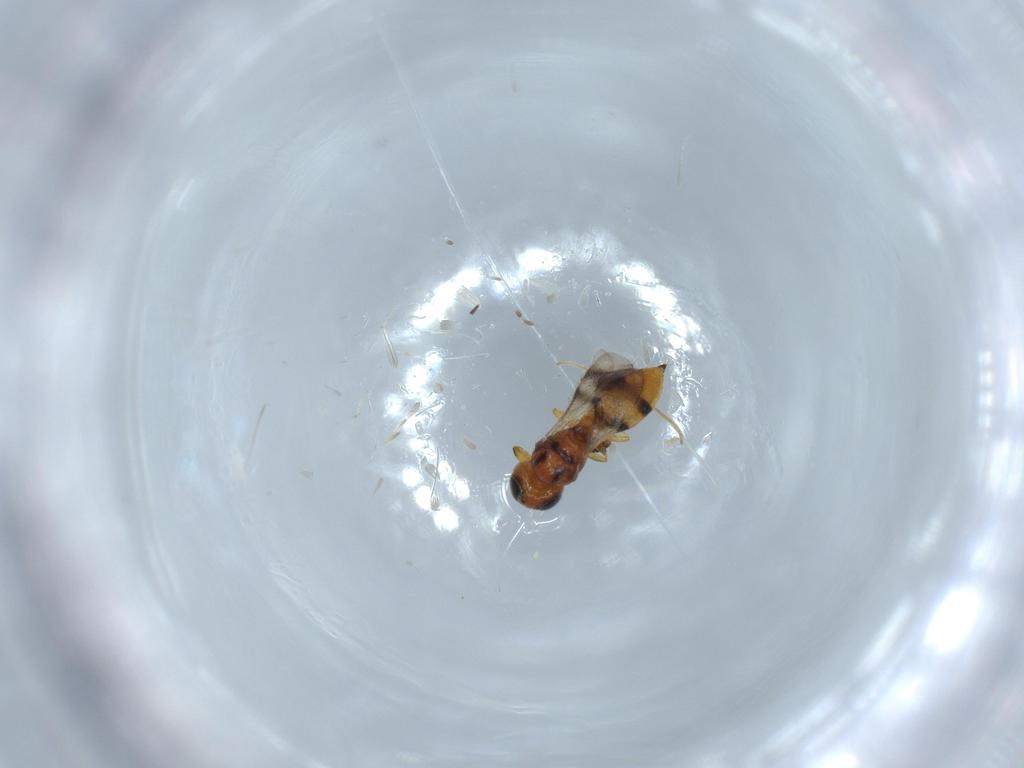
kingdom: Animalia
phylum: Arthropoda
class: Insecta
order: Hymenoptera
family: Scelionidae
